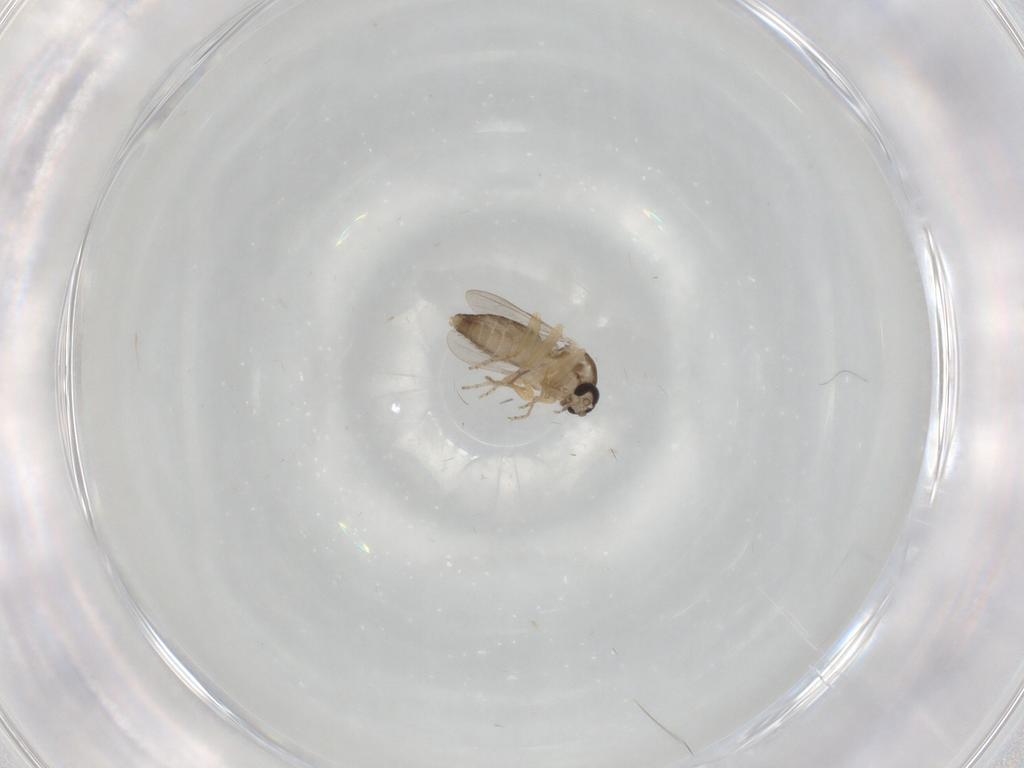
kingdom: Animalia
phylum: Arthropoda
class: Insecta
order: Diptera
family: Ceratopogonidae
